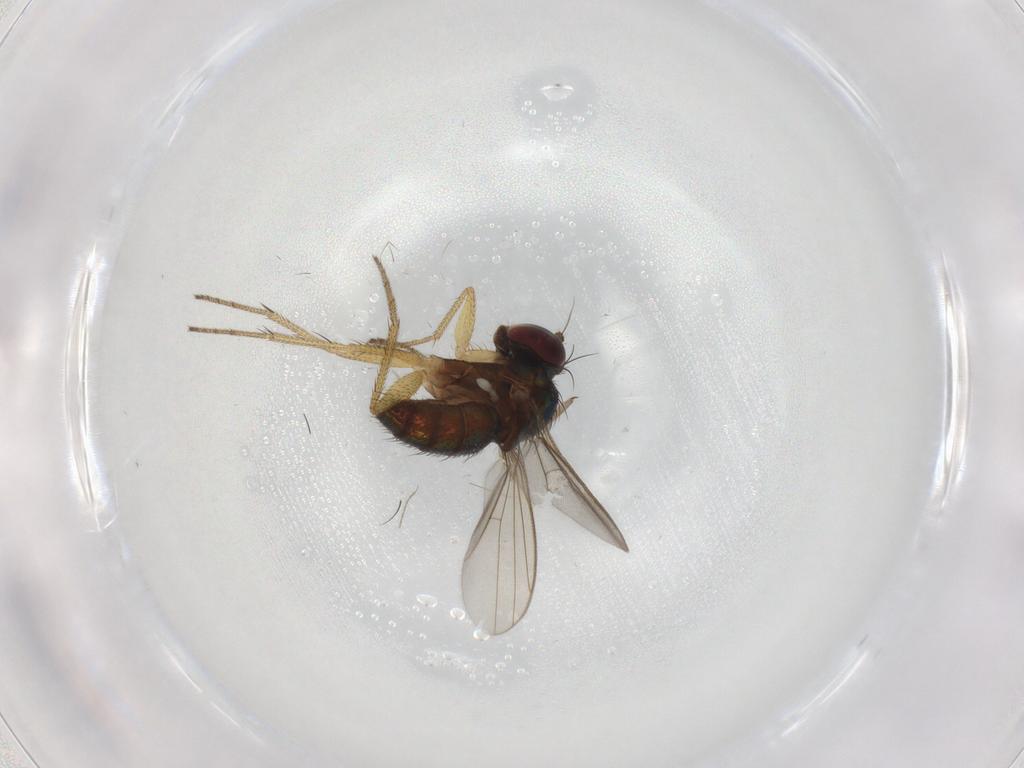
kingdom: Animalia
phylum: Arthropoda
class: Insecta
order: Diptera
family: Dolichopodidae
